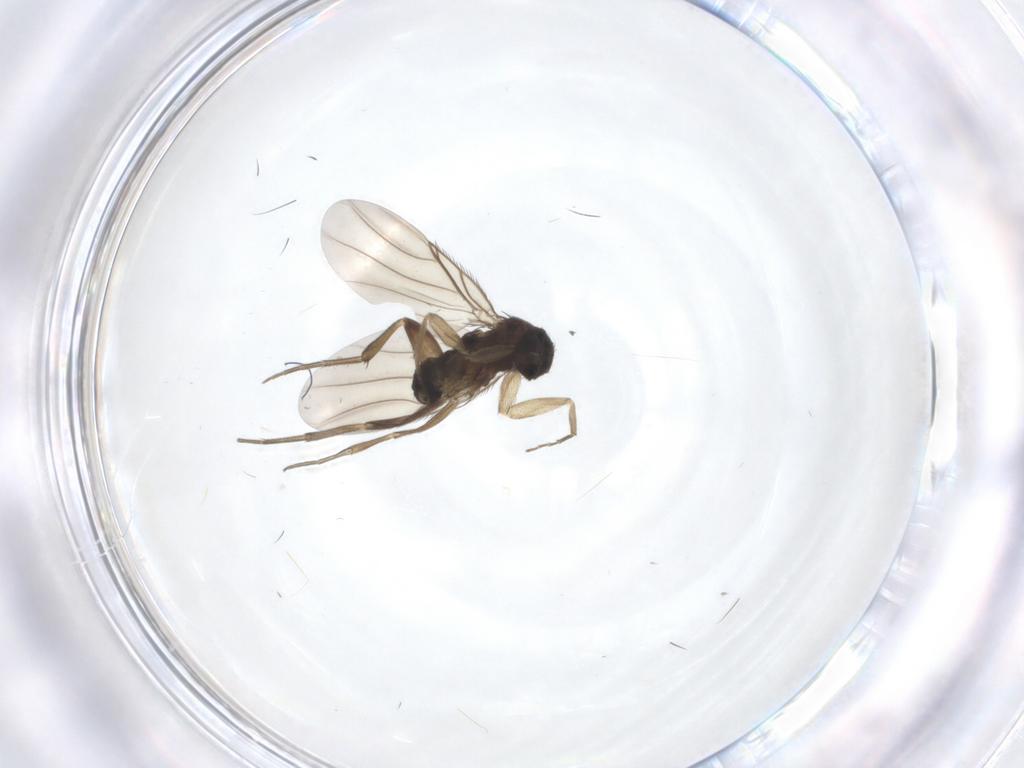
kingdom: Animalia
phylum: Arthropoda
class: Insecta
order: Diptera
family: Phoridae
